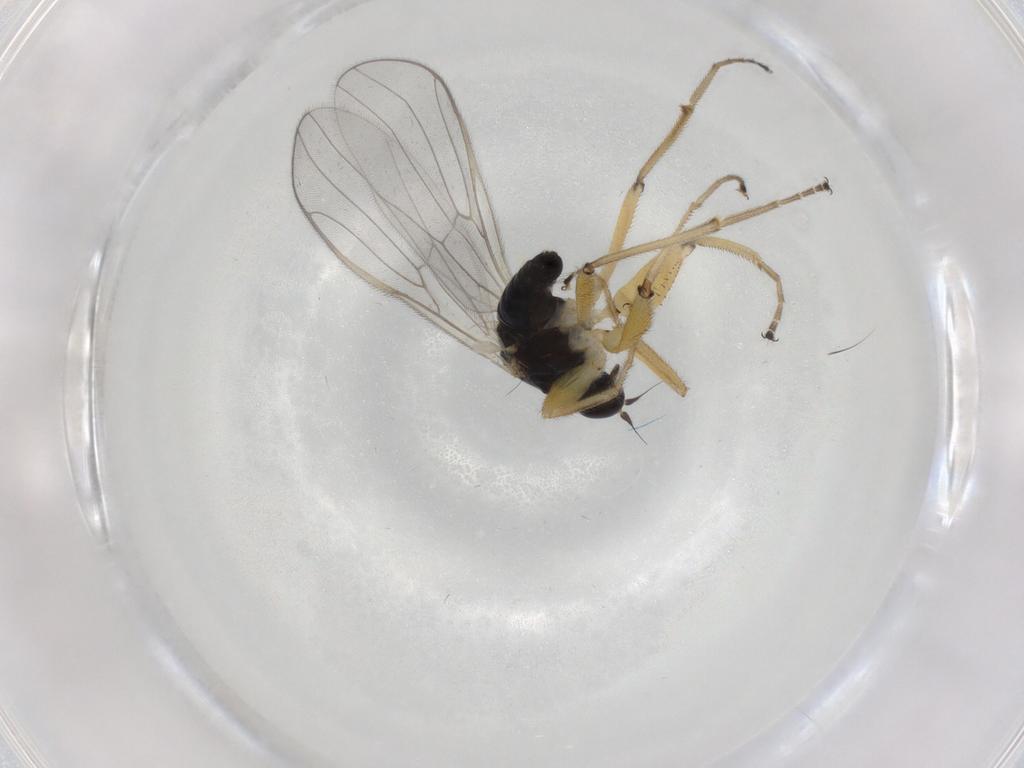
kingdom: Animalia
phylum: Arthropoda
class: Insecta
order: Diptera
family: Hybotidae
